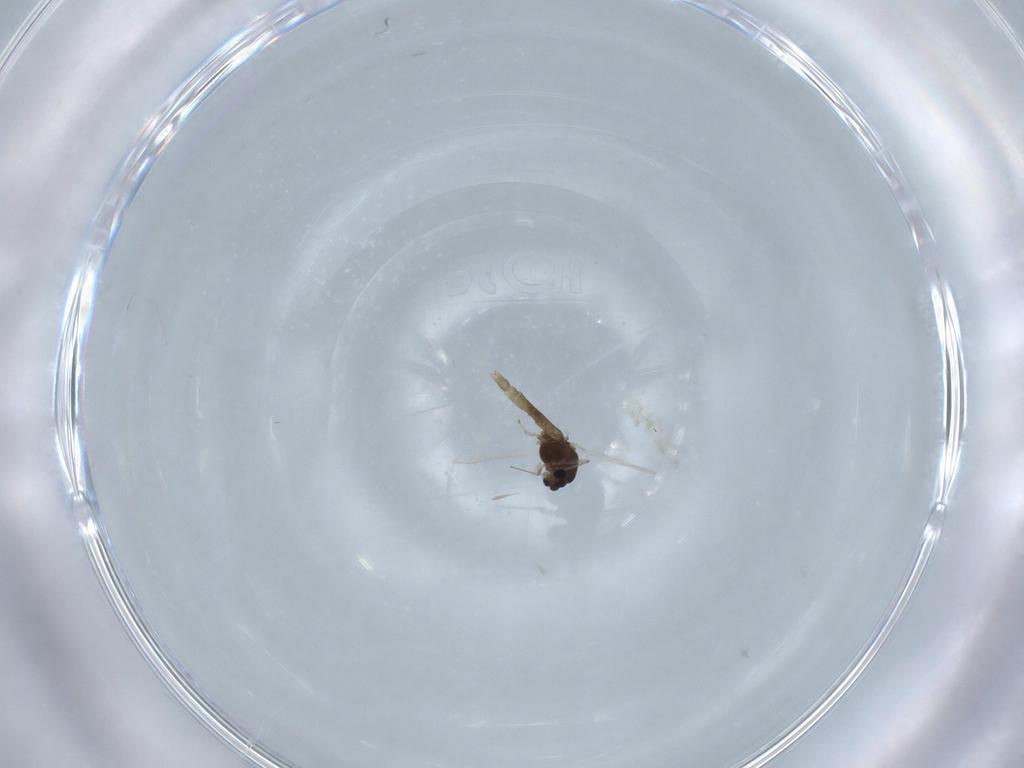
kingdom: Animalia
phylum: Arthropoda
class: Insecta
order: Diptera
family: Chironomidae
